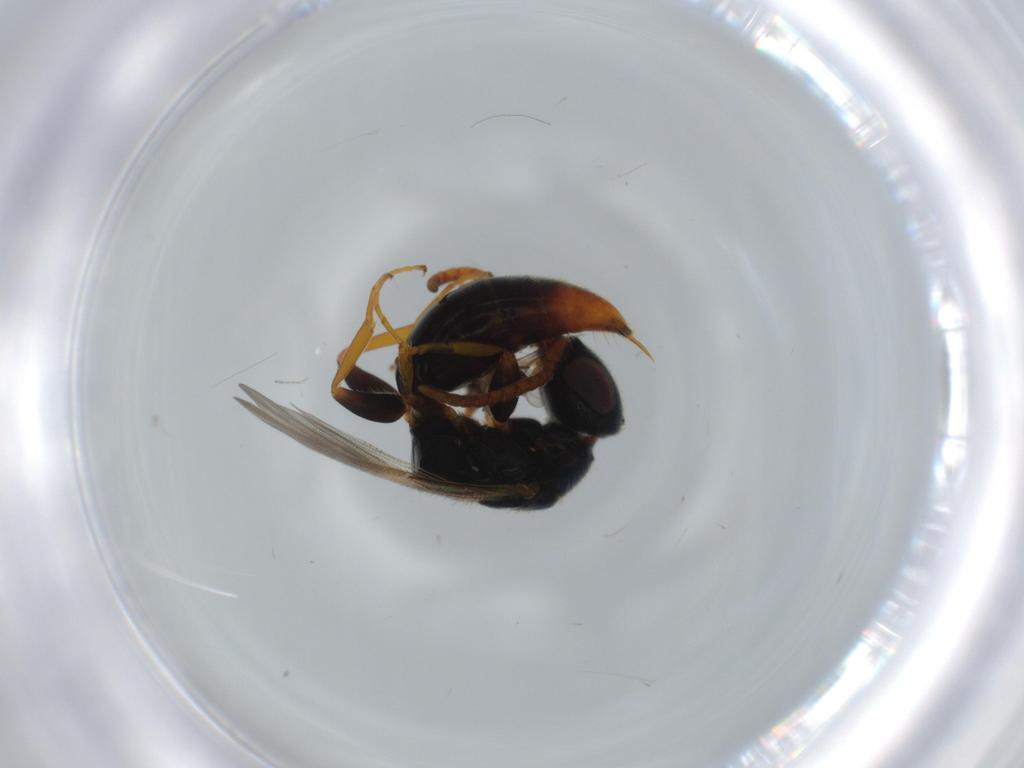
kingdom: Animalia
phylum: Arthropoda
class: Insecta
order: Hymenoptera
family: Bethylidae
